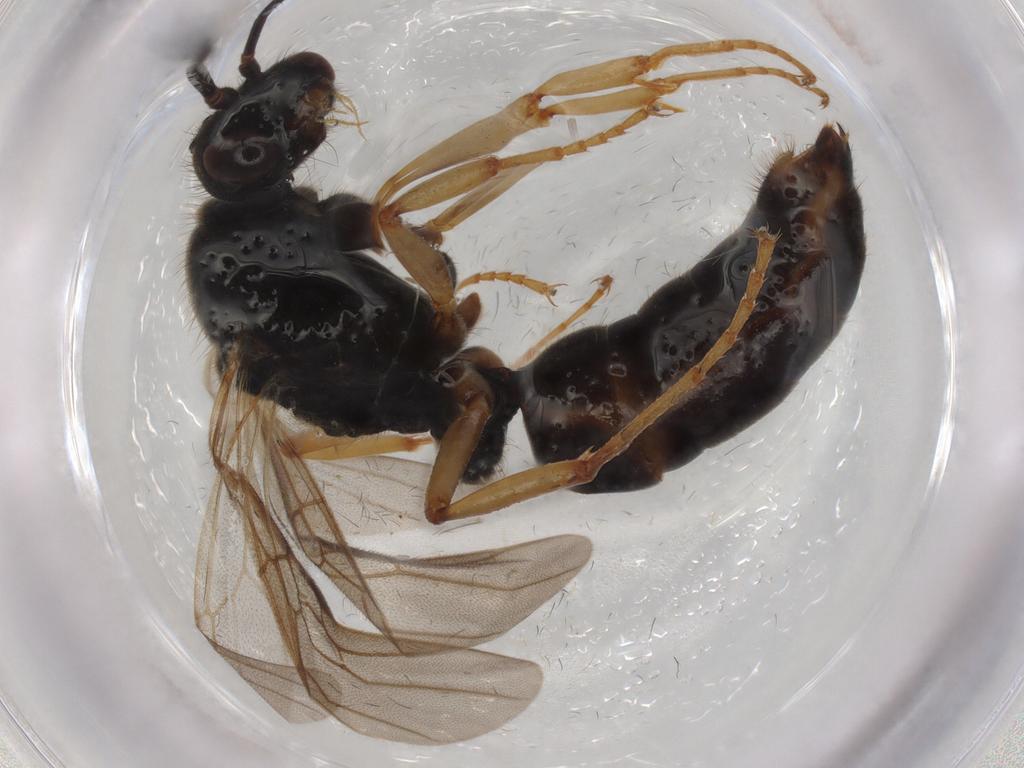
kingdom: Animalia
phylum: Arthropoda
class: Insecta
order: Hymenoptera
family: Formicidae
